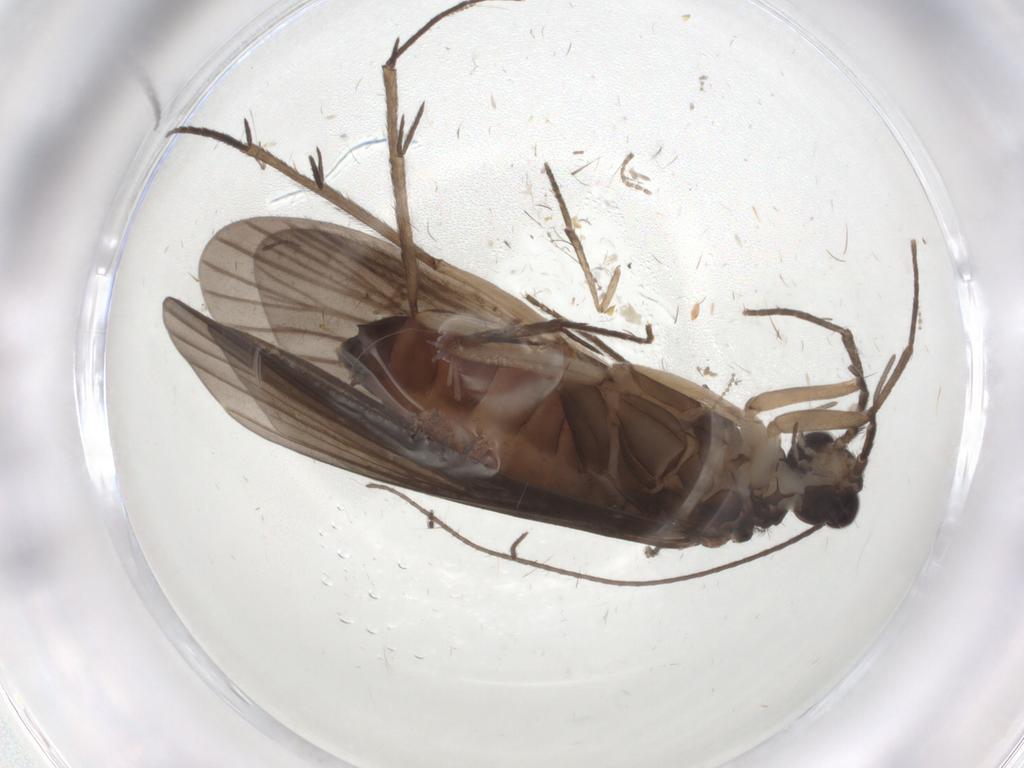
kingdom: Animalia
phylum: Arthropoda
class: Insecta
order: Trichoptera
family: Philopotamidae
